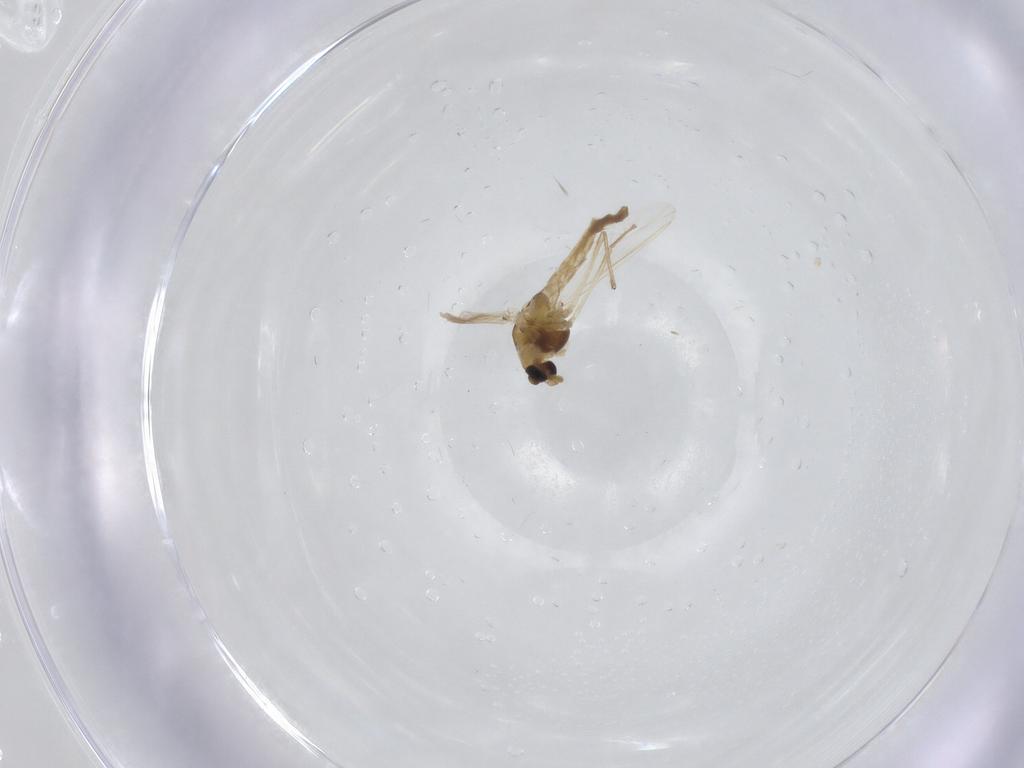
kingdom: Animalia
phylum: Arthropoda
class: Insecta
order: Diptera
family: Chironomidae
